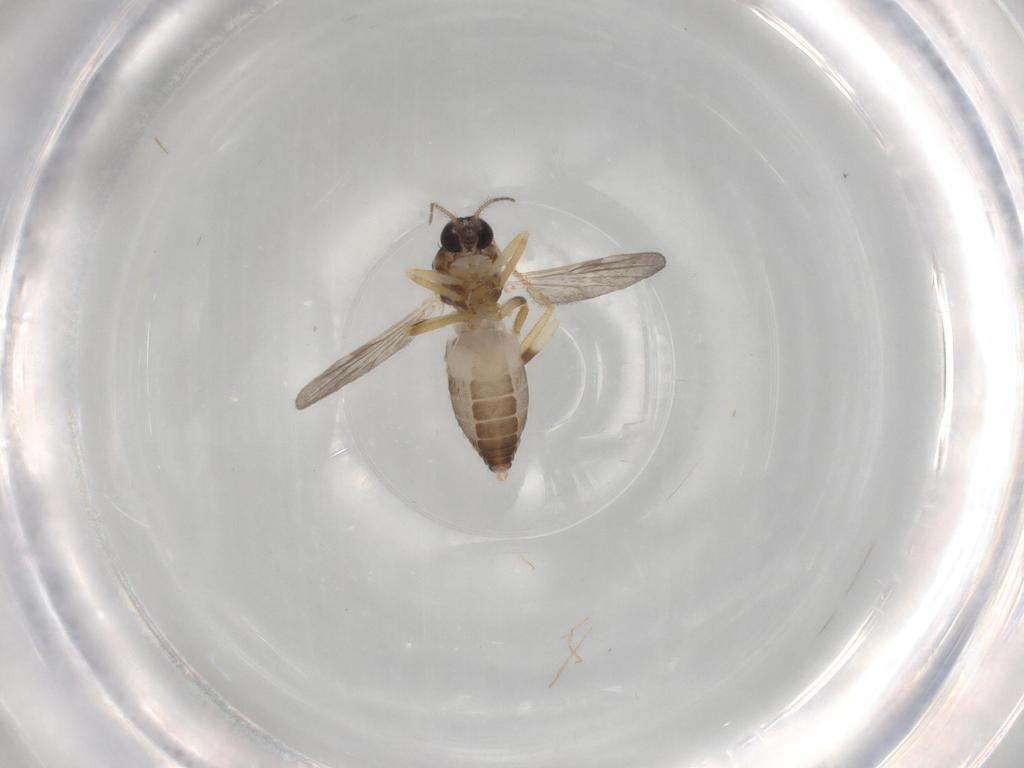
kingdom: Animalia
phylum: Arthropoda
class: Insecta
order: Diptera
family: Ceratopogonidae
